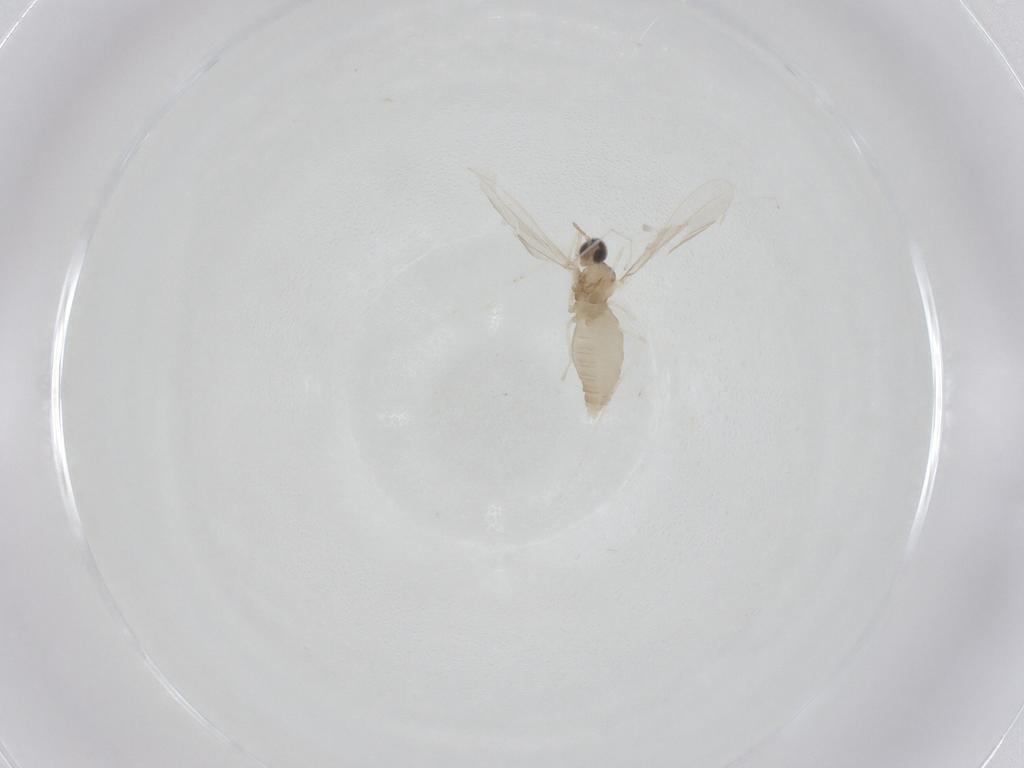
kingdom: Animalia
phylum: Arthropoda
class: Insecta
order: Diptera
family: Cecidomyiidae
